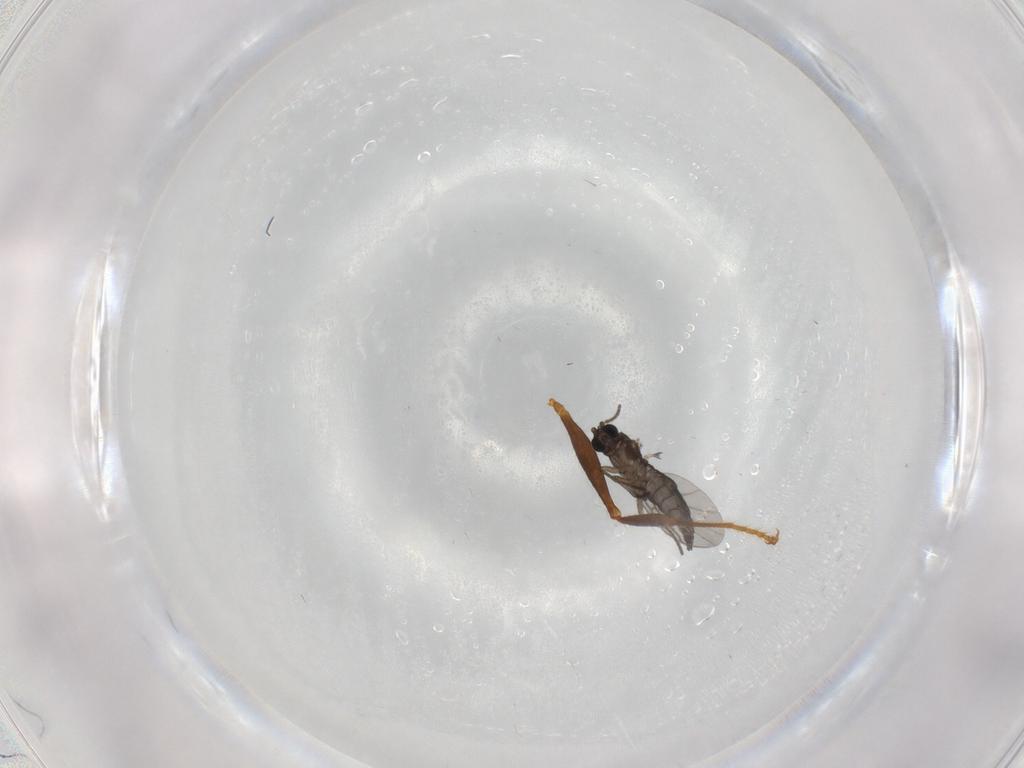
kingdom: Animalia
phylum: Arthropoda
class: Insecta
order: Diptera
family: Sciaridae
